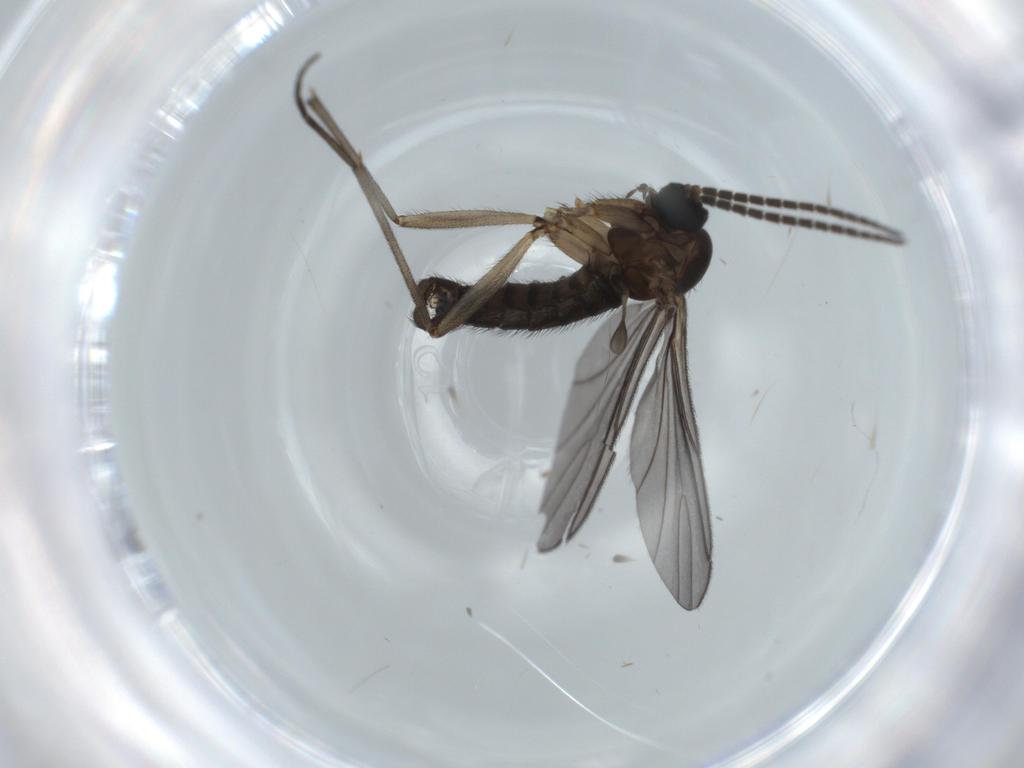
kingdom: Animalia
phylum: Arthropoda
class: Insecta
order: Diptera
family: Sciaridae
